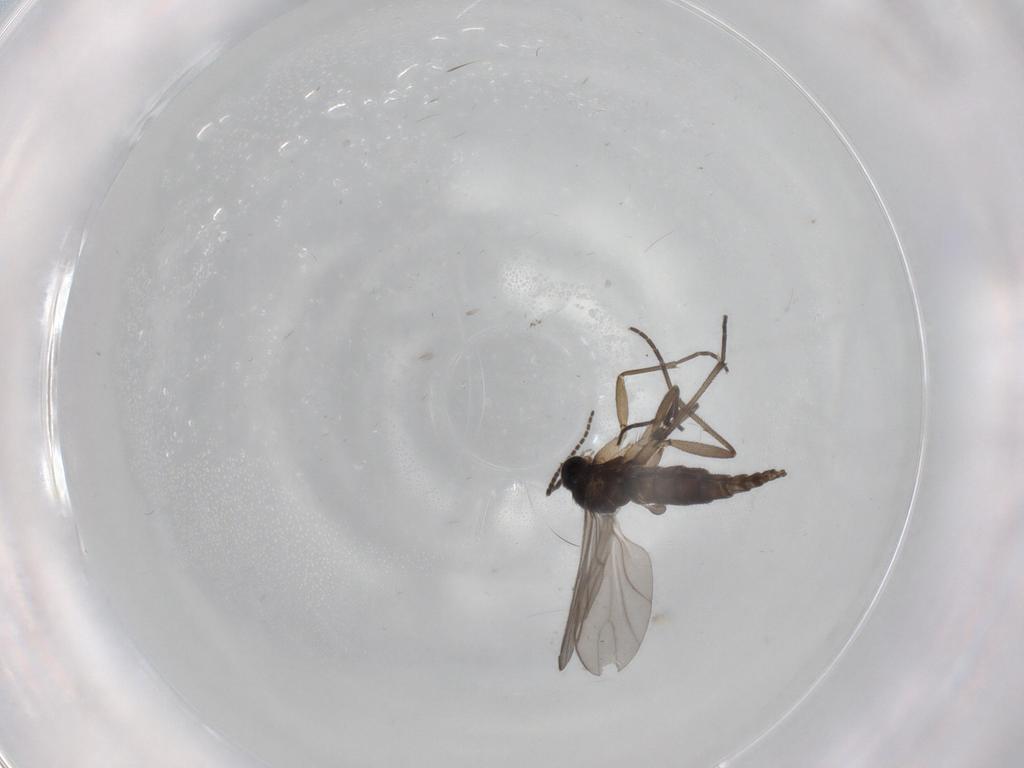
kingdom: Animalia
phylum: Arthropoda
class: Insecta
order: Diptera
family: Sciaridae
